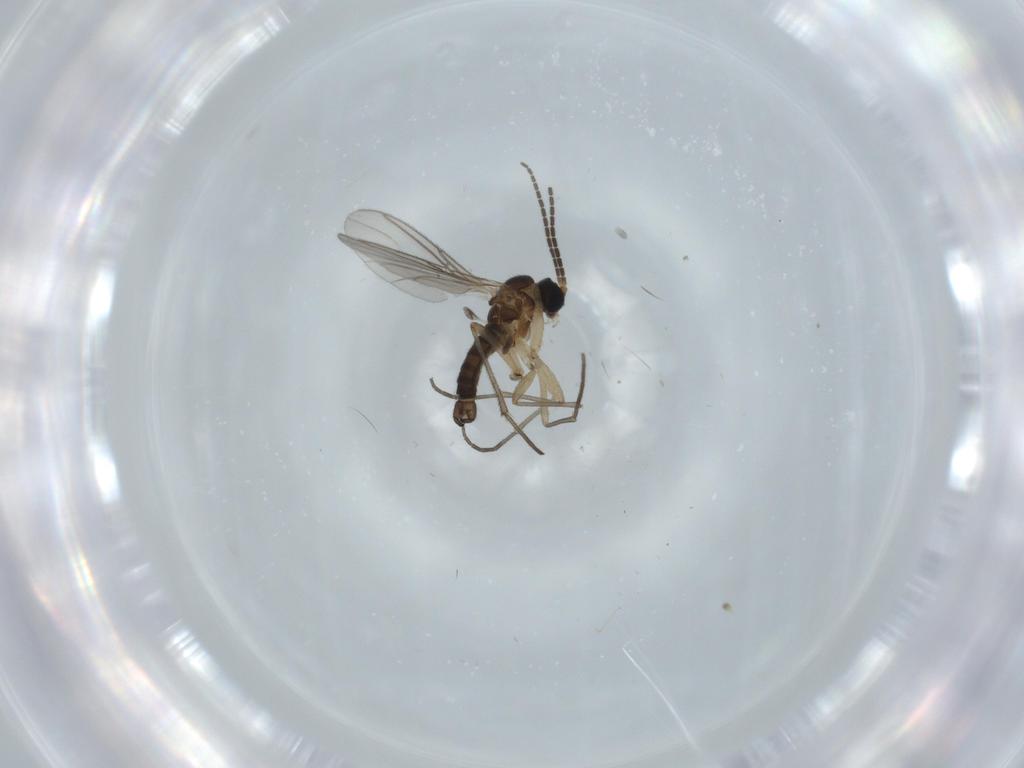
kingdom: Animalia
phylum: Arthropoda
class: Insecta
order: Diptera
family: Sciaridae
